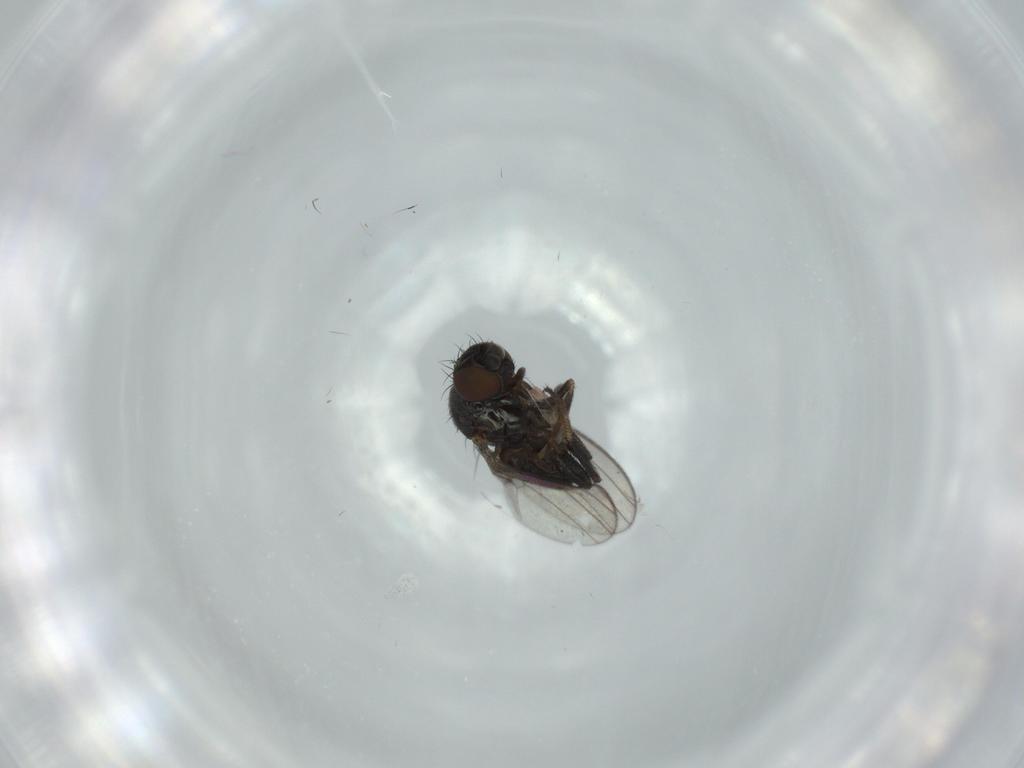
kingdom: Animalia
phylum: Arthropoda
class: Insecta
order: Diptera
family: Milichiidae
